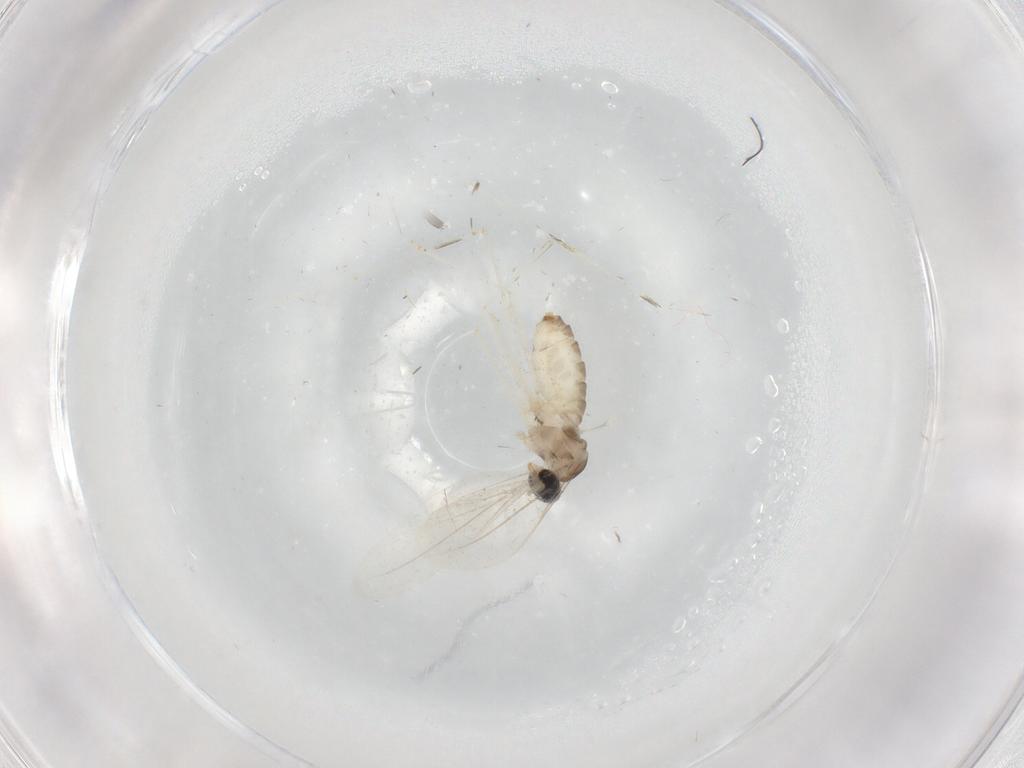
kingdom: Animalia
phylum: Arthropoda
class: Insecta
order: Diptera
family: Cecidomyiidae
